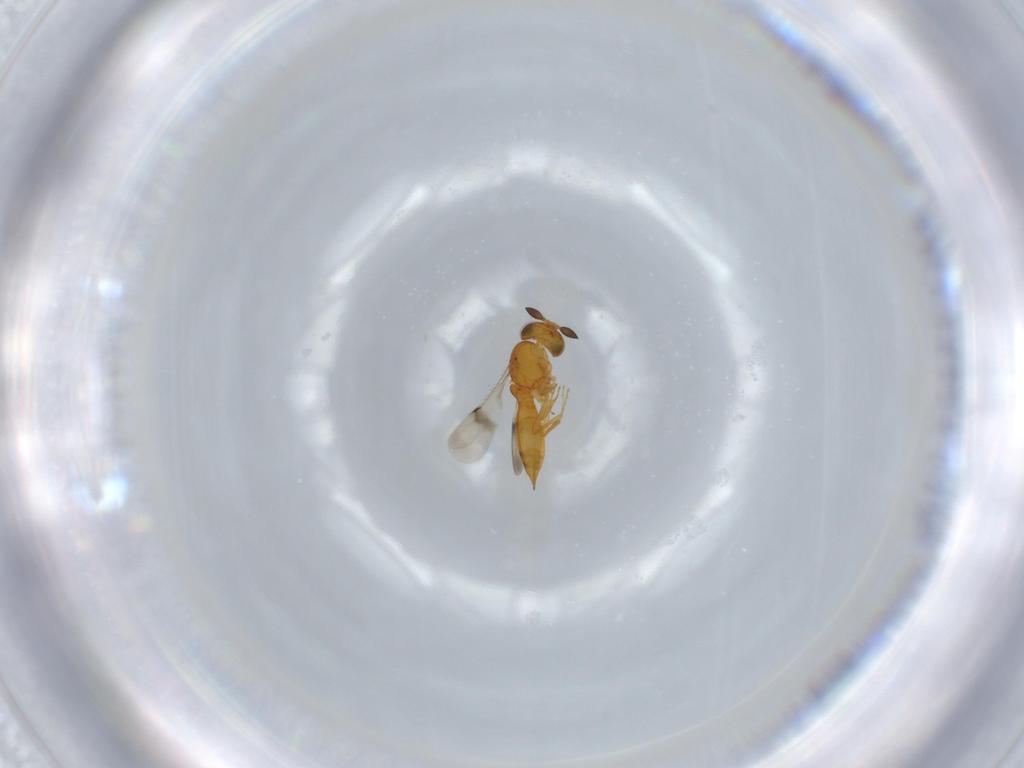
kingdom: Animalia
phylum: Arthropoda
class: Insecta
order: Hymenoptera
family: Scelionidae
